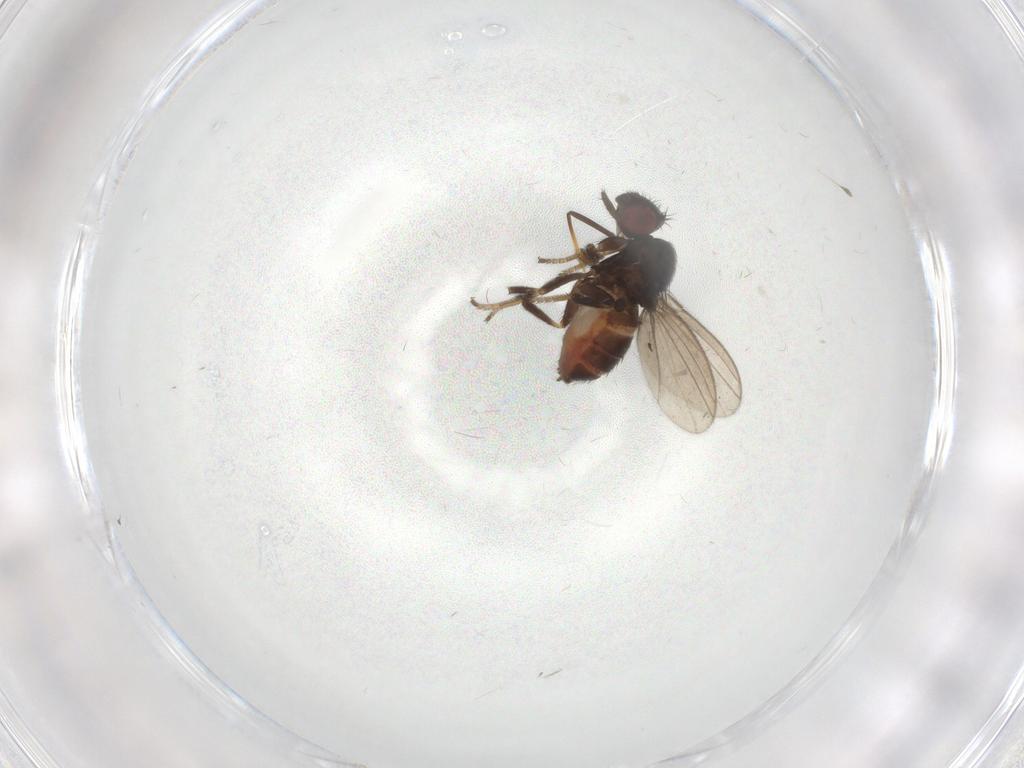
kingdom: Animalia
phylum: Arthropoda
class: Insecta
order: Diptera
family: Milichiidae
